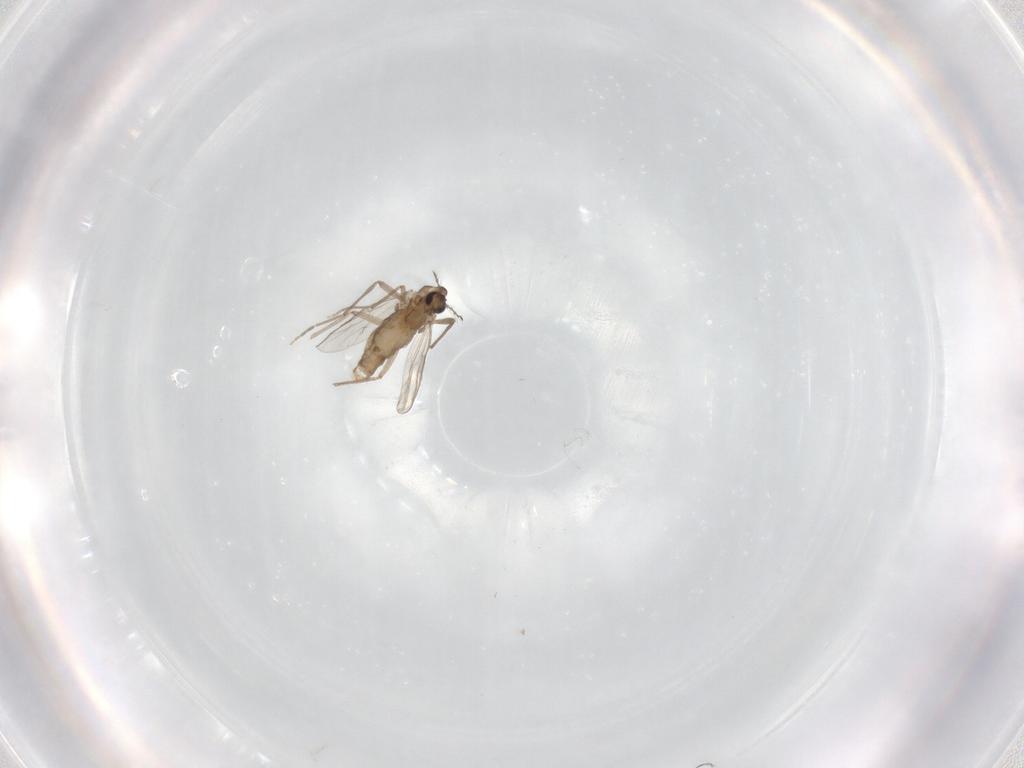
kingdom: Animalia
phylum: Arthropoda
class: Insecta
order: Diptera
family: Chironomidae
